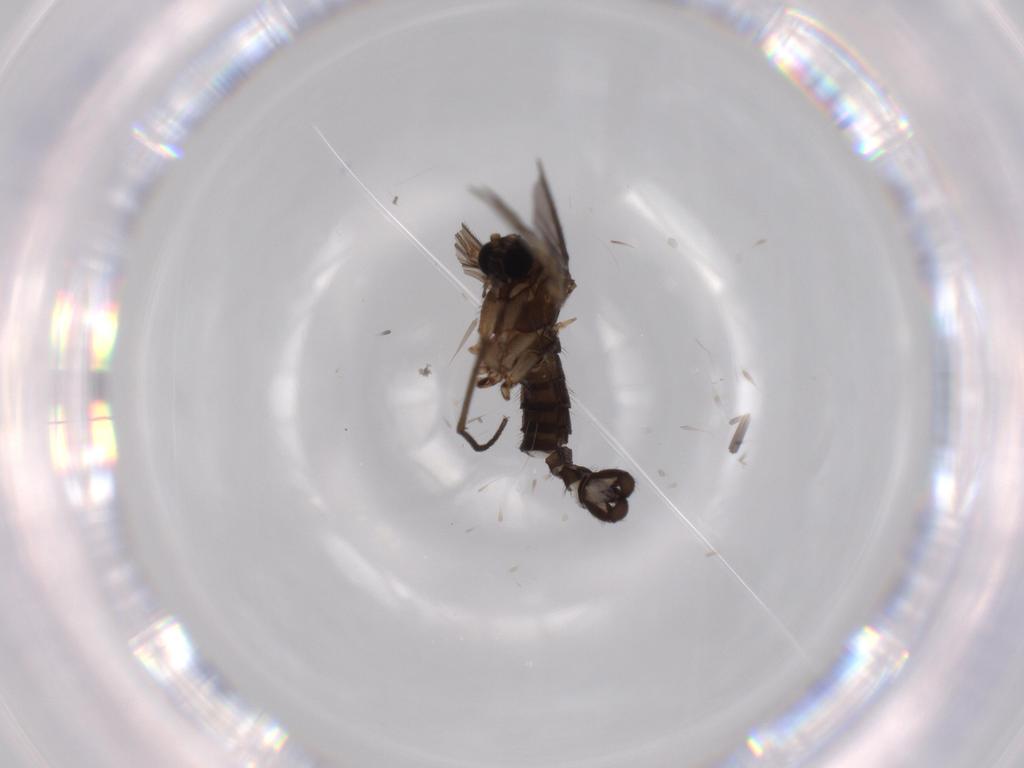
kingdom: Animalia
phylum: Arthropoda
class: Insecta
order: Diptera
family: Sciaridae
